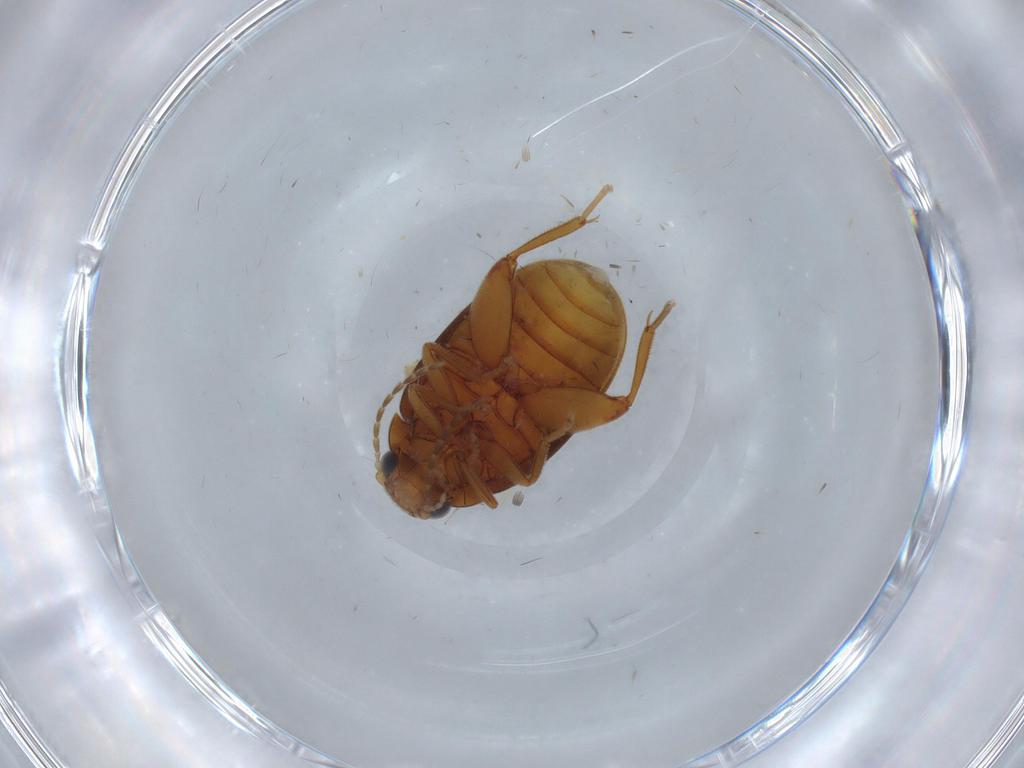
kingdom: Animalia
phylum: Arthropoda
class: Insecta
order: Coleoptera
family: Scirtidae
